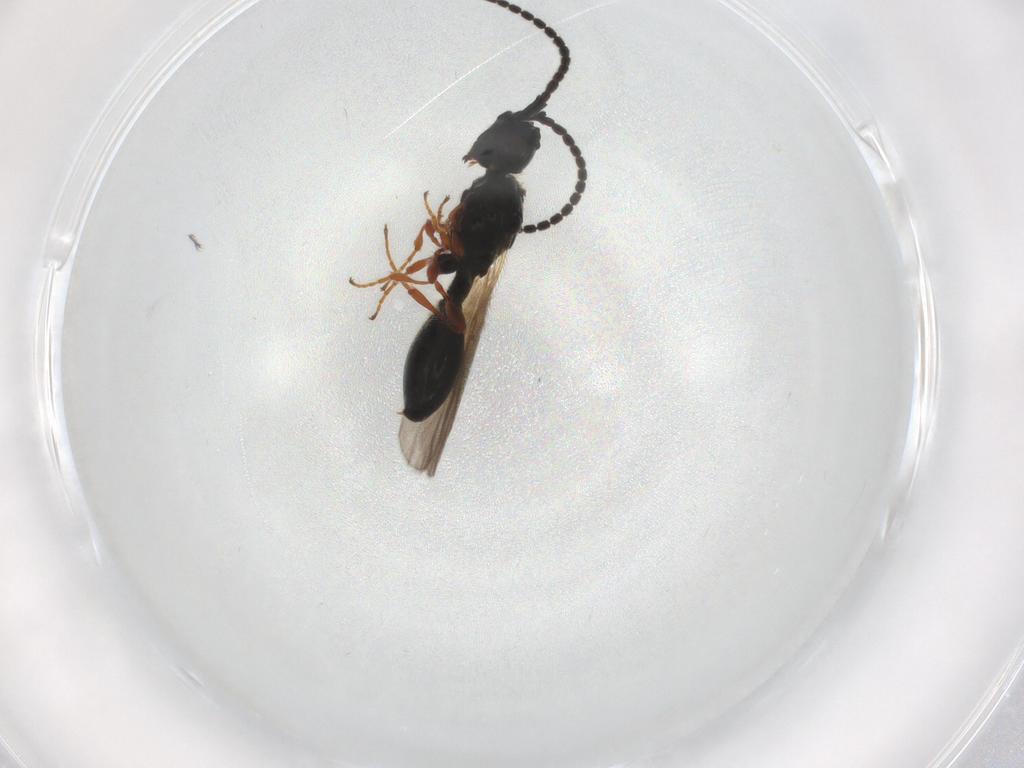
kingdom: Animalia
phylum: Arthropoda
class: Insecta
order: Hymenoptera
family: Diapriidae
